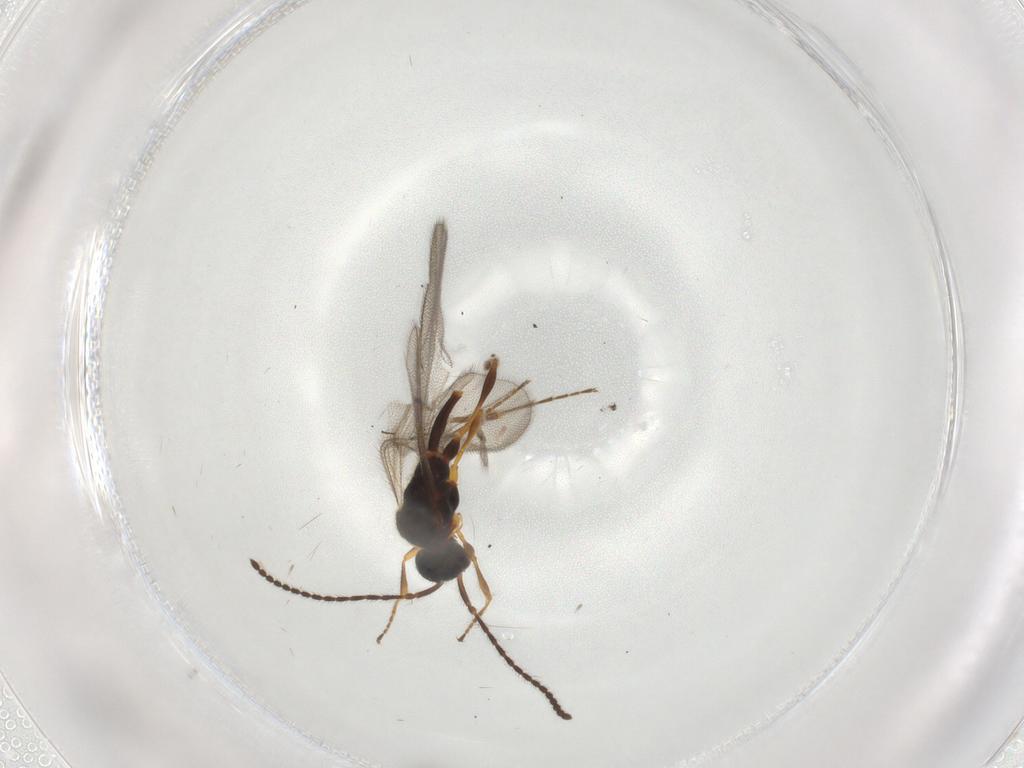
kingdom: Animalia
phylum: Arthropoda
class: Insecta
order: Hymenoptera
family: Diapriidae
